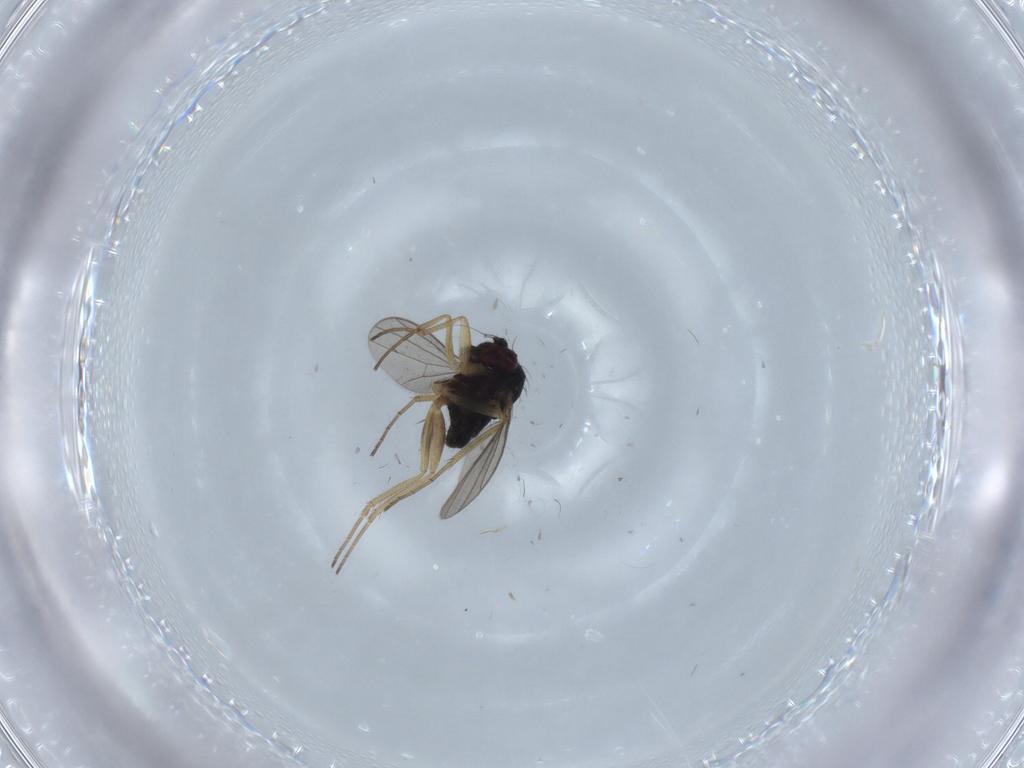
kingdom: Animalia
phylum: Arthropoda
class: Insecta
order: Diptera
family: Dolichopodidae
